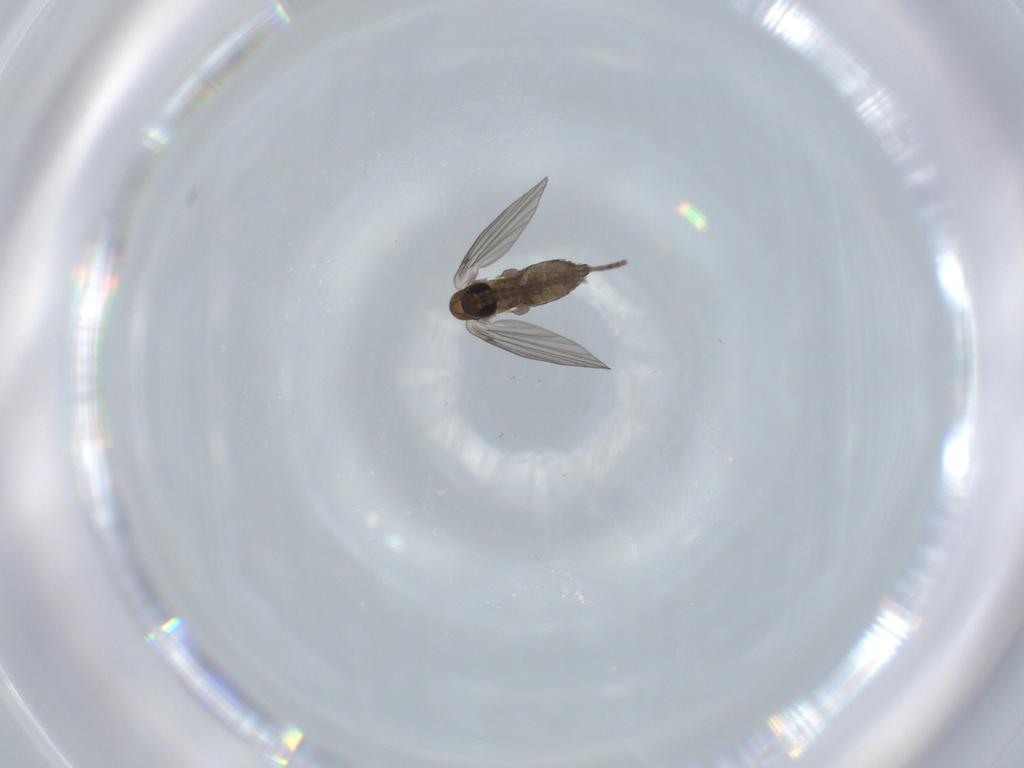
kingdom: Animalia
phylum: Arthropoda
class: Insecta
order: Diptera
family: Psychodidae
